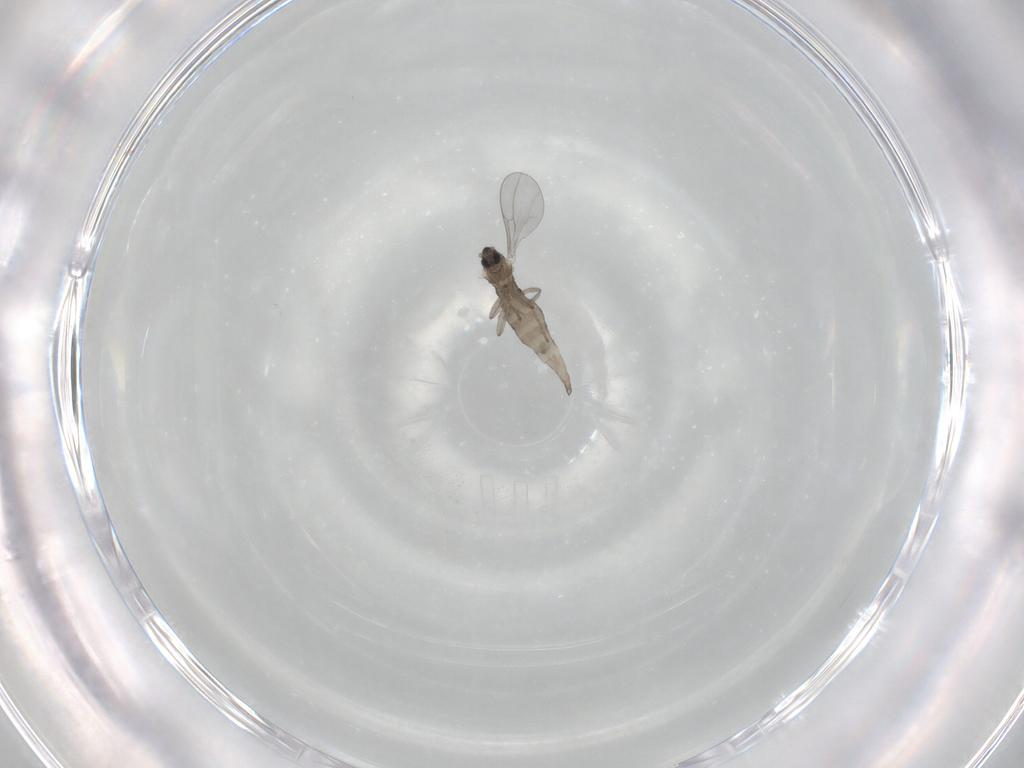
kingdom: Animalia
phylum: Arthropoda
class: Insecta
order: Diptera
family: Cecidomyiidae
